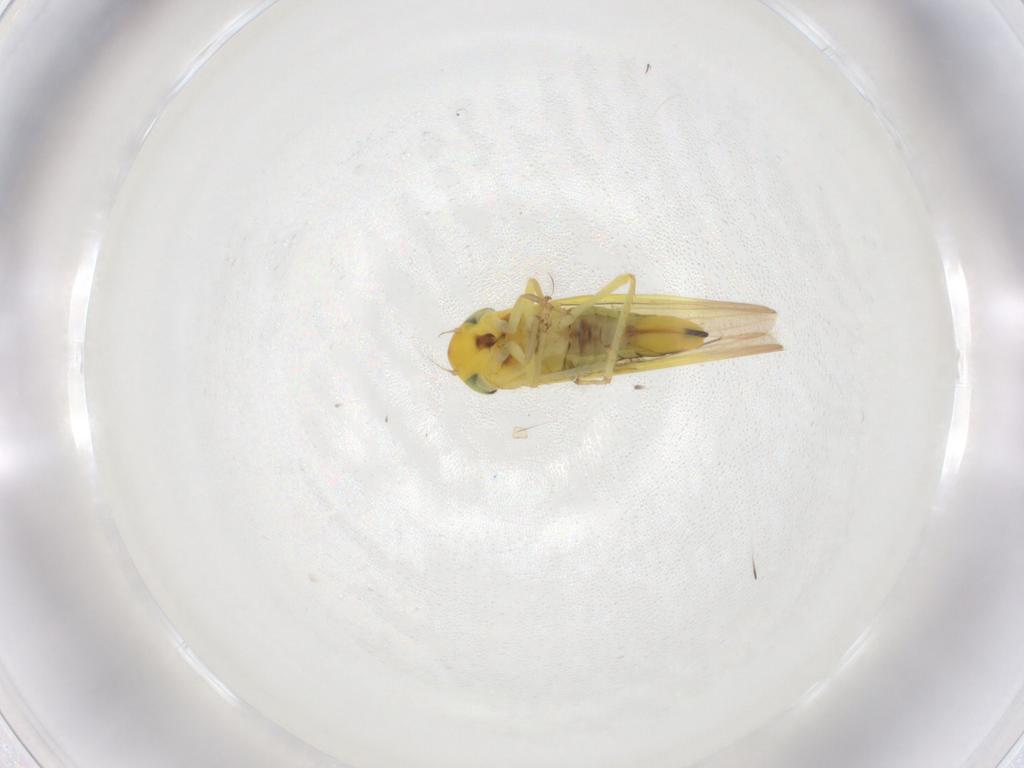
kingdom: Animalia
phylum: Arthropoda
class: Insecta
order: Hemiptera
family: Cicadellidae
